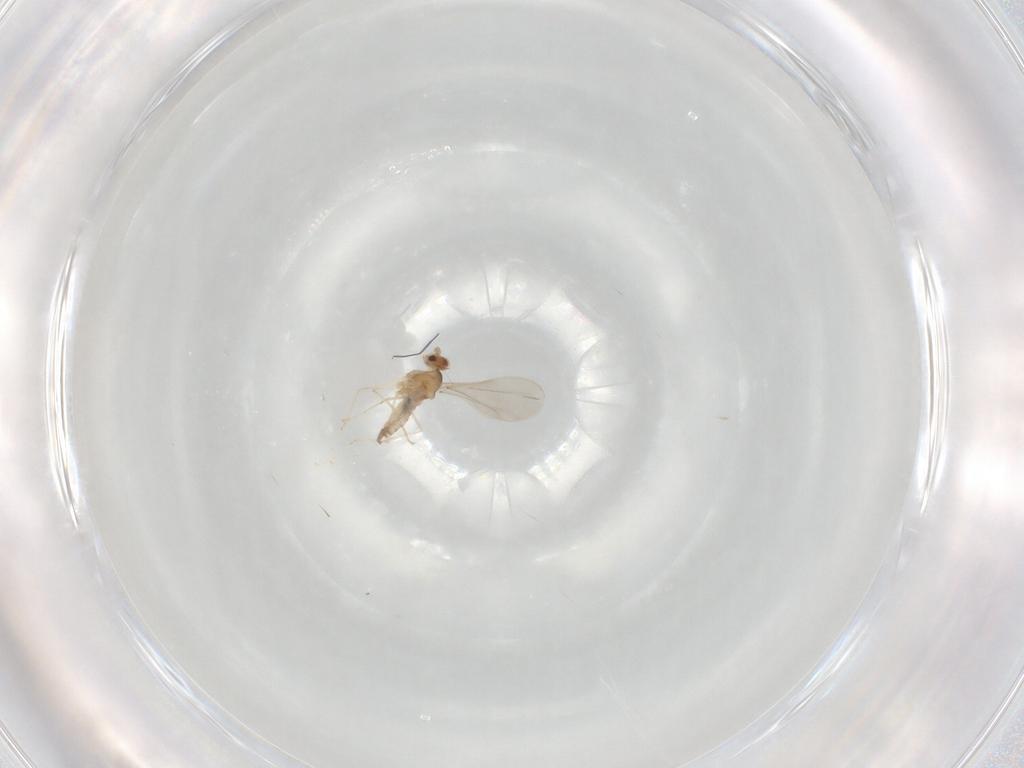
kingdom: Animalia
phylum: Arthropoda
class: Insecta
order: Diptera
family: Cecidomyiidae
